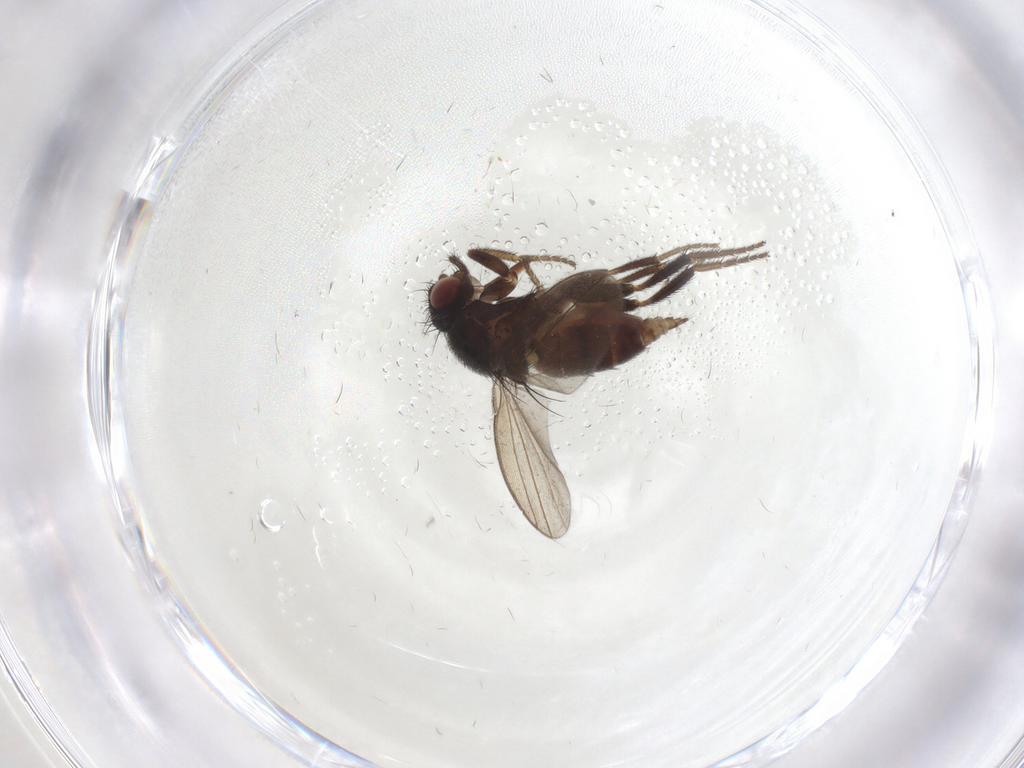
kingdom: Animalia
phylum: Arthropoda
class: Insecta
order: Diptera
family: Milichiidae
